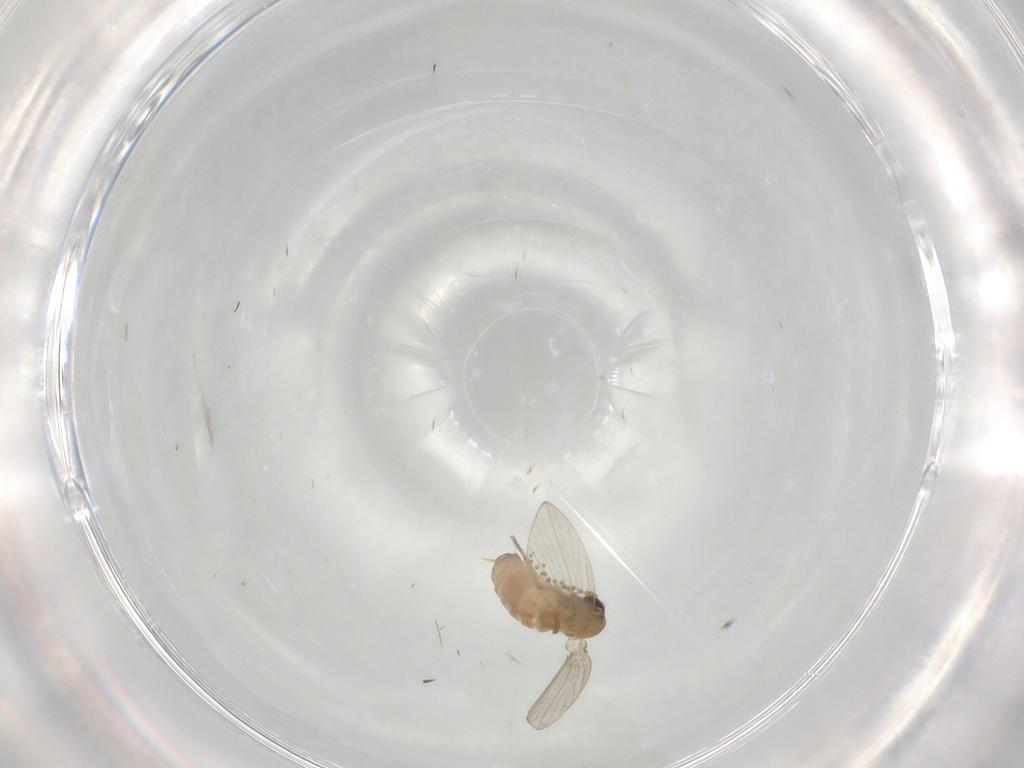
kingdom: Animalia
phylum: Arthropoda
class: Insecta
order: Diptera
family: Psychodidae
